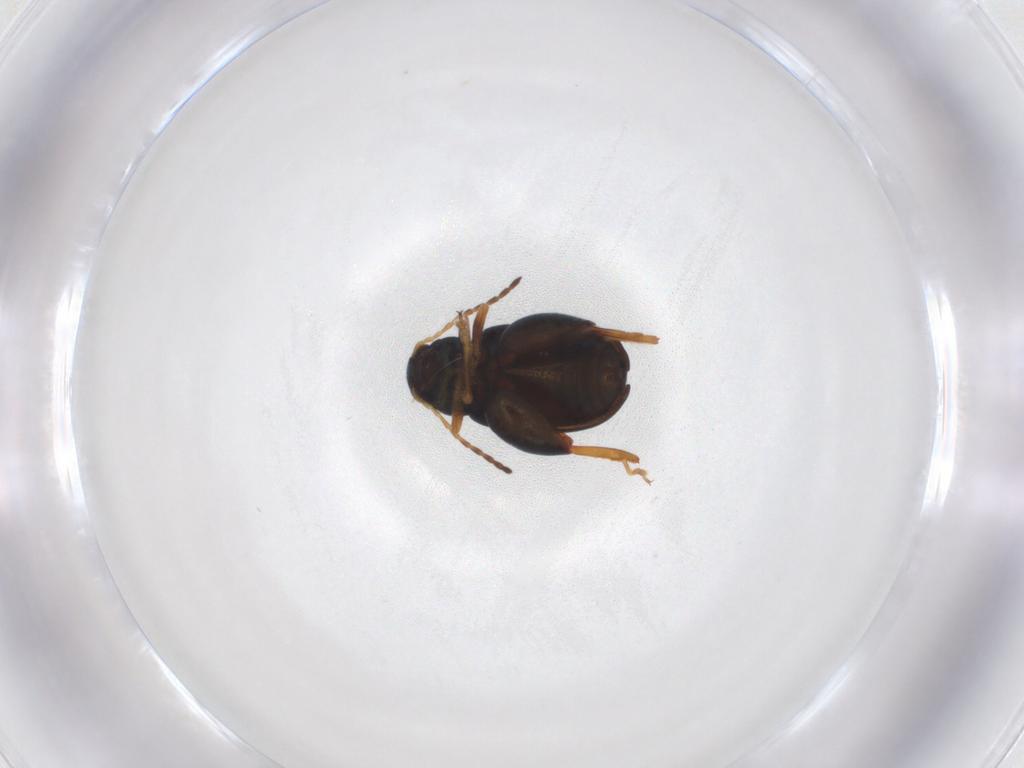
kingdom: Animalia
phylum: Arthropoda
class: Insecta
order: Coleoptera
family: Chrysomelidae
